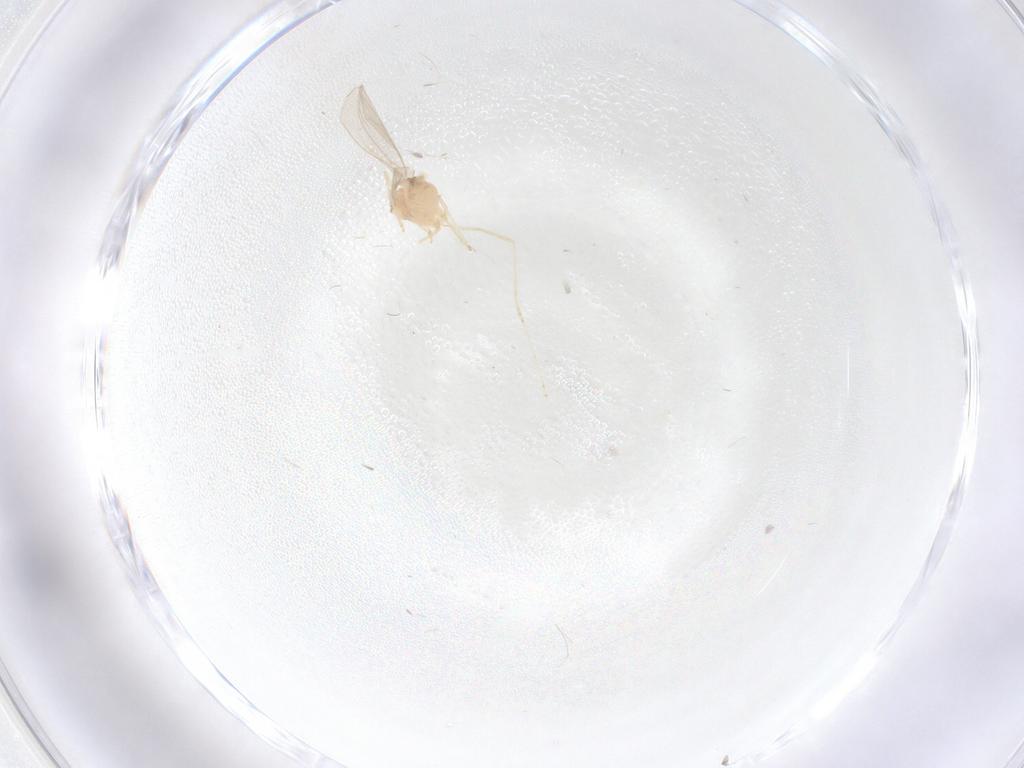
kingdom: Animalia
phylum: Arthropoda
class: Insecta
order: Diptera
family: Cecidomyiidae
